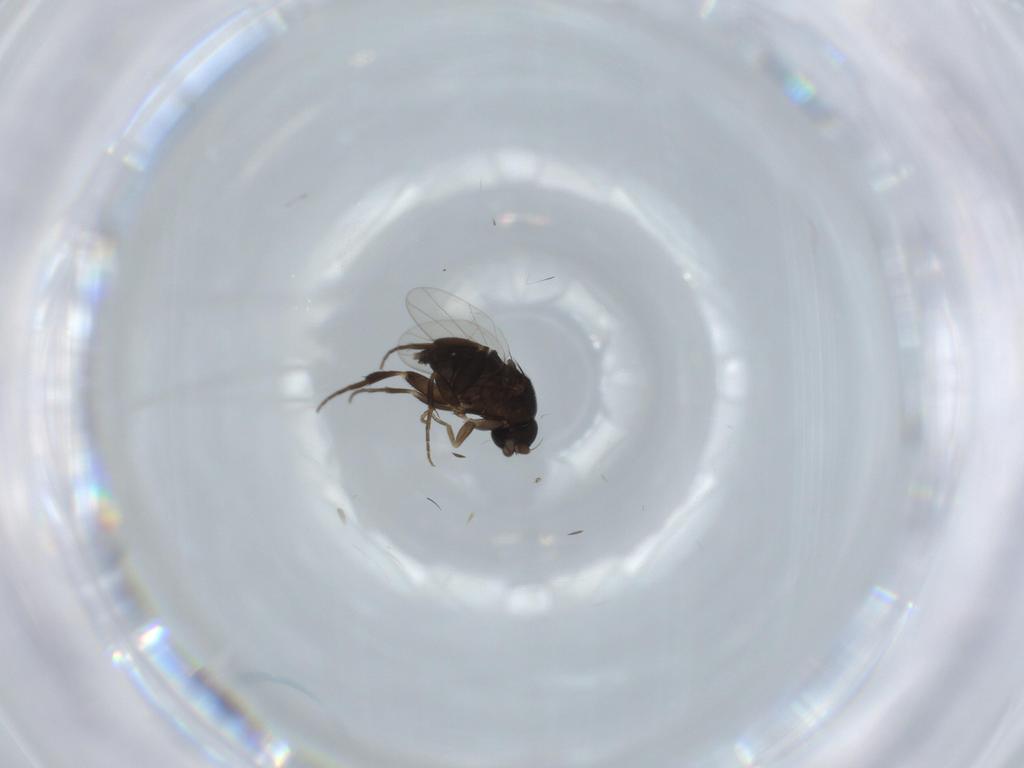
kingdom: Animalia
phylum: Arthropoda
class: Insecta
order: Diptera
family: Phoridae
